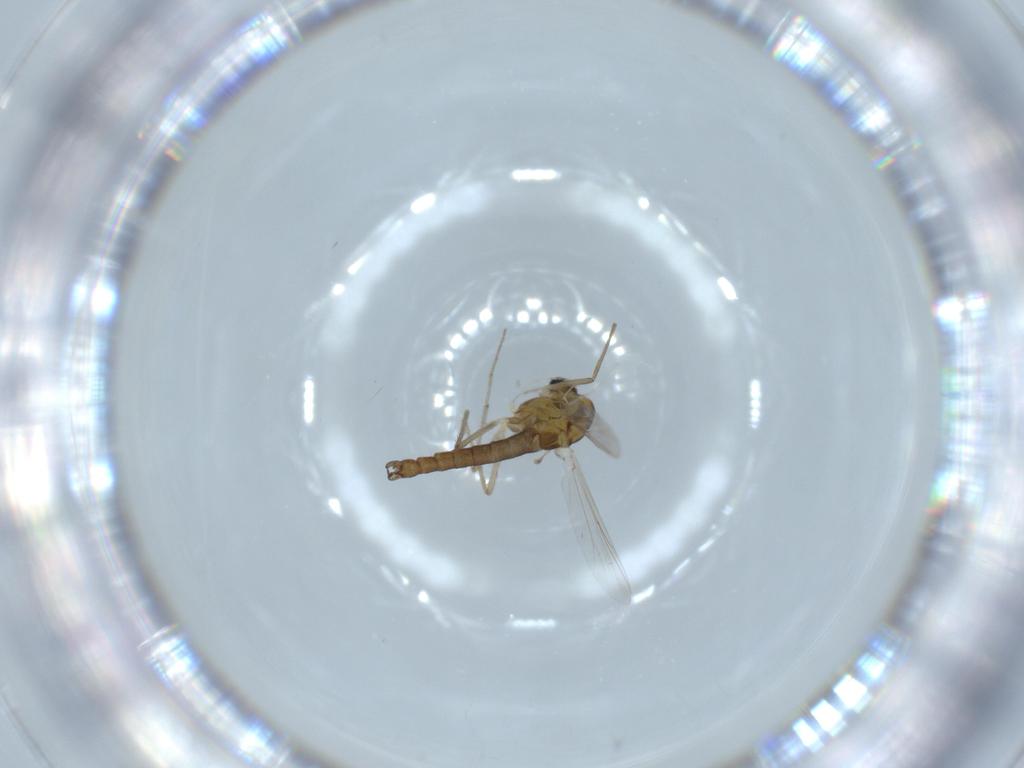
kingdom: Animalia
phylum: Arthropoda
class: Insecta
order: Diptera
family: Chironomidae
